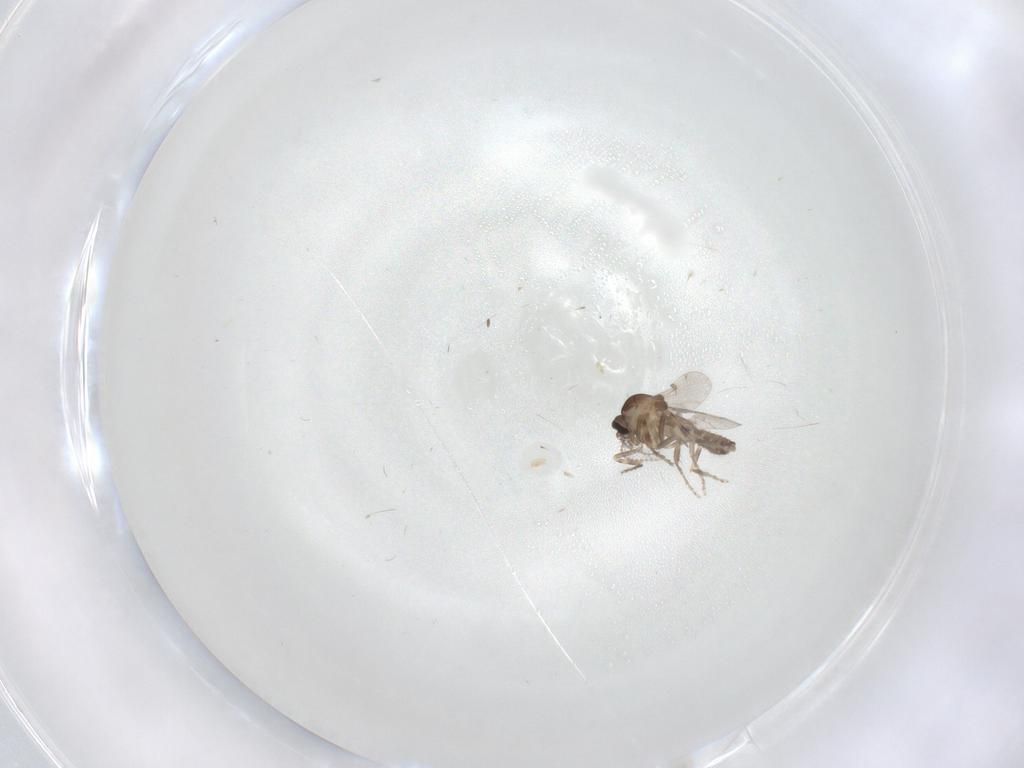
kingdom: Animalia
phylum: Arthropoda
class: Insecta
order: Diptera
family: Ceratopogonidae
